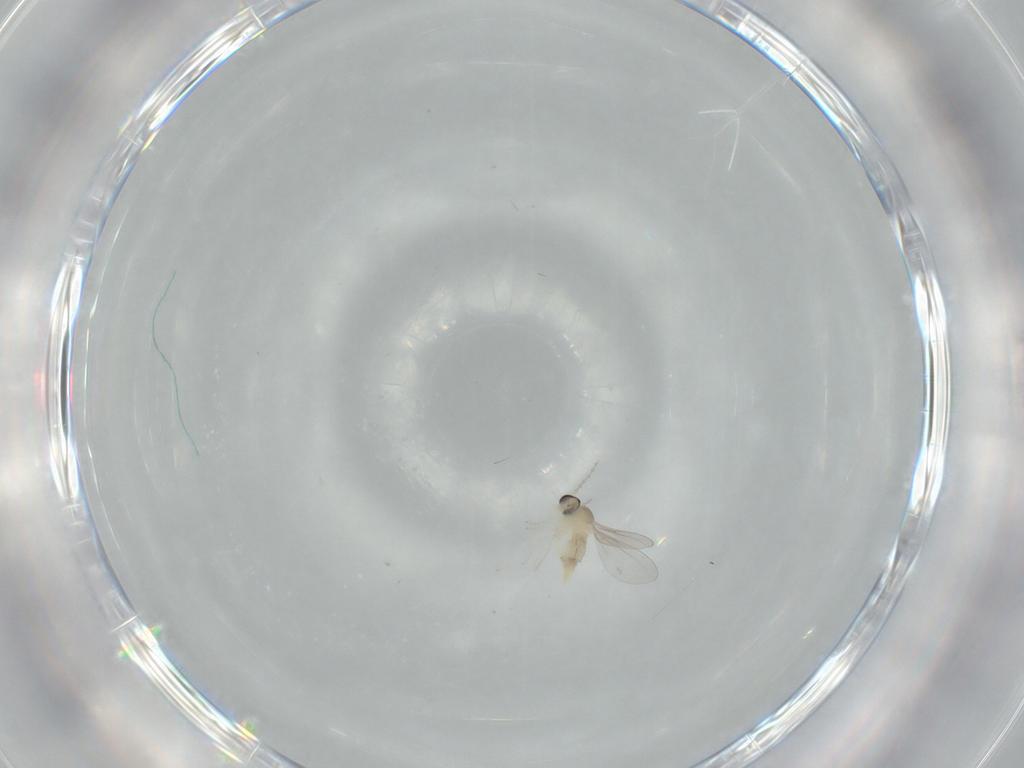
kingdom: Animalia
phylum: Arthropoda
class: Insecta
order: Diptera
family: Cecidomyiidae
